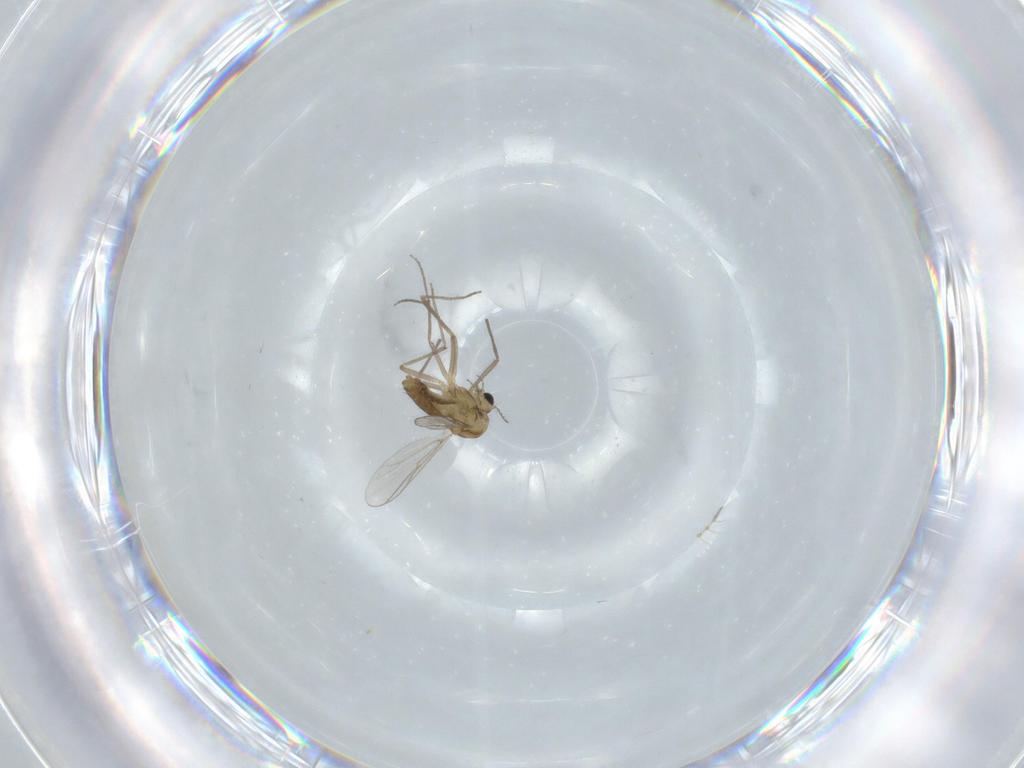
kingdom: Animalia
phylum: Arthropoda
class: Insecta
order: Diptera
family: Chironomidae
